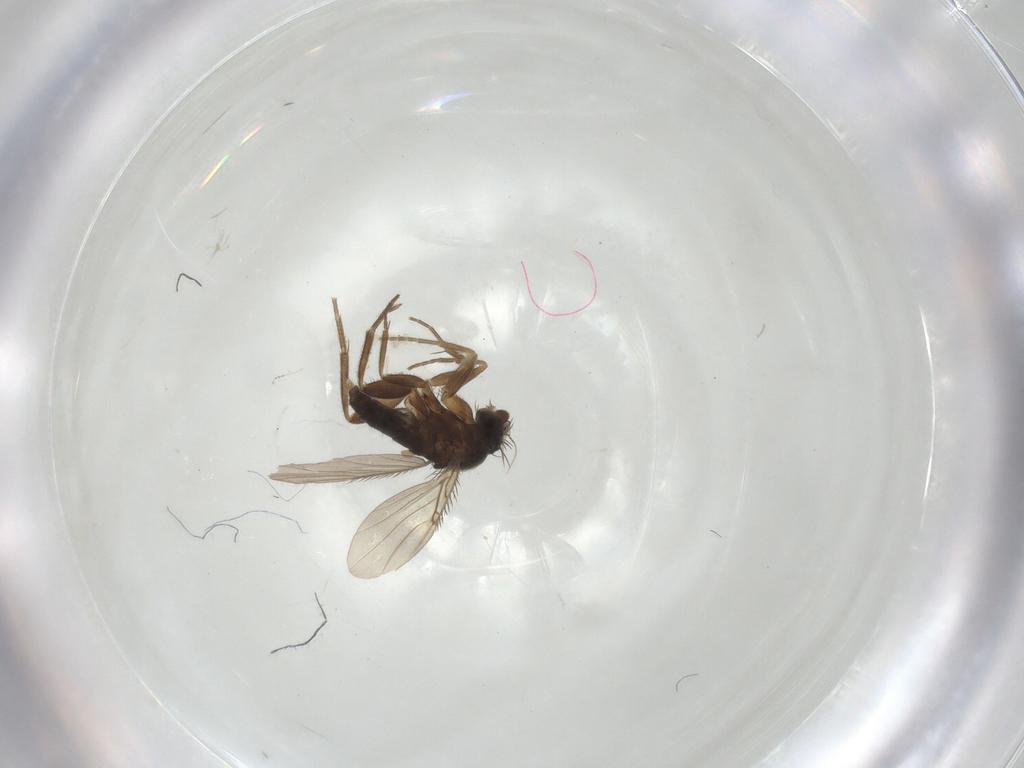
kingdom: Animalia
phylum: Arthropoda
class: Insecta
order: Diptera
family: Phoridae
